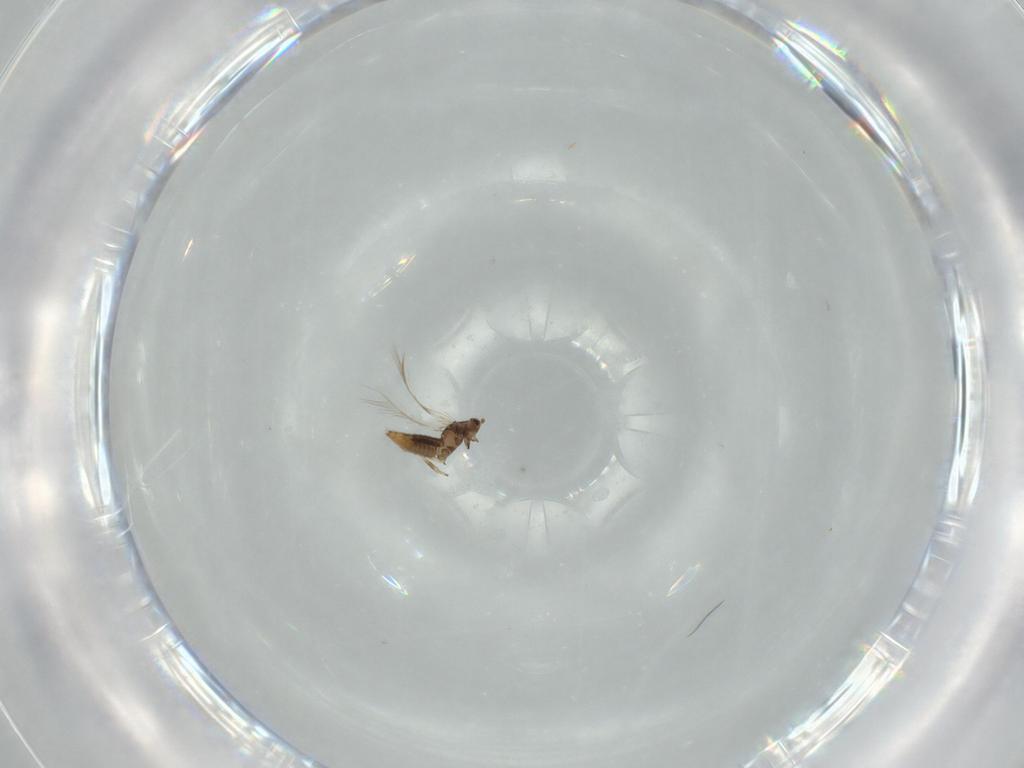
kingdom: Animalia
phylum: Arthropoda
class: Insecta
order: Thysanoptera
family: Thripidae
